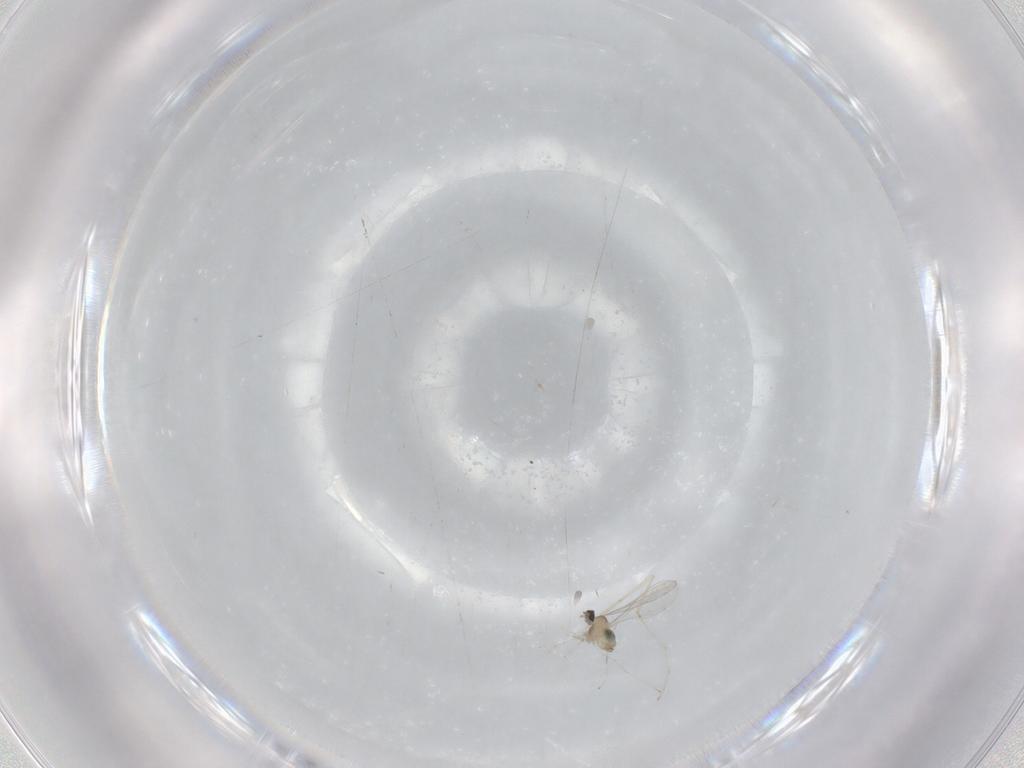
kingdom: Animalia
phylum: Arthropoda
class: Insecta
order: Diptera
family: Cecidomyiidae
